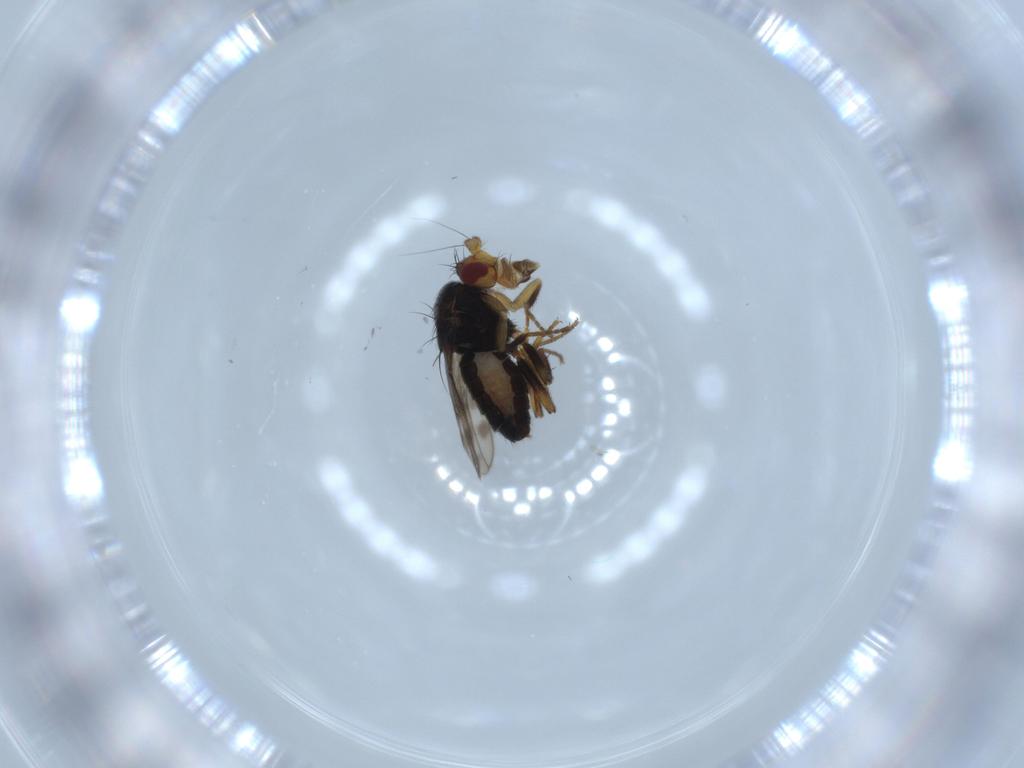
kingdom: Animalia
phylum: Arthropoda
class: Insecta
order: Diptera
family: Sphaeroceridae
